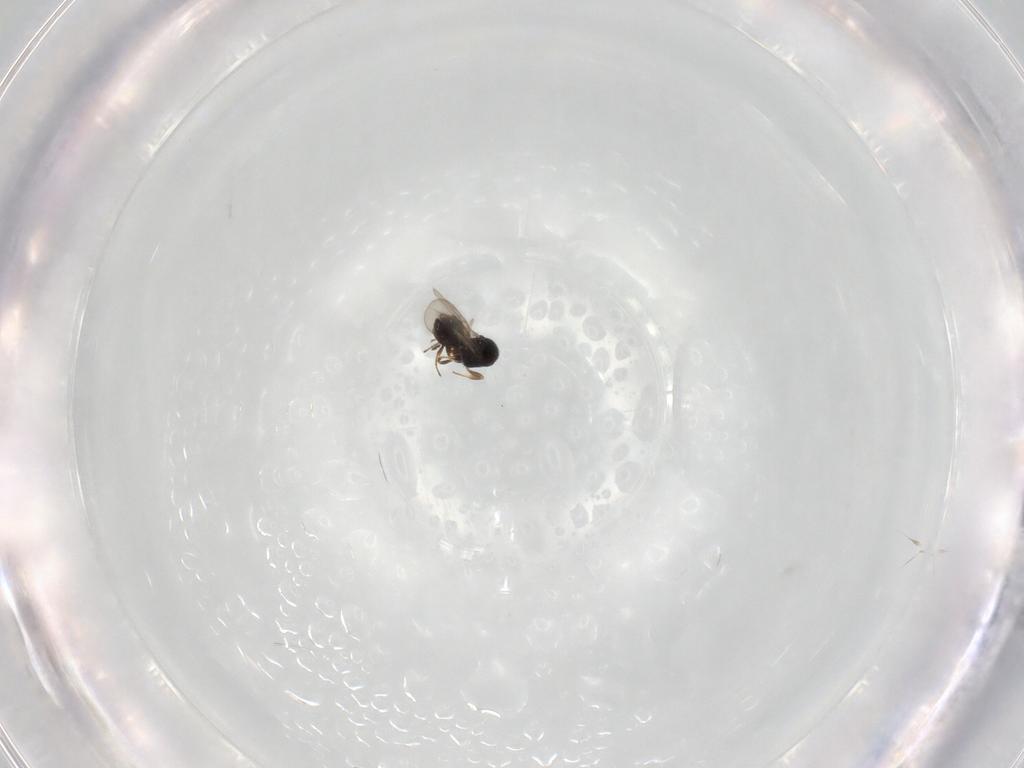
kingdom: Animalia
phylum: Arthropoda
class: Insecta
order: Hymenoptera
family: Scelionidae
